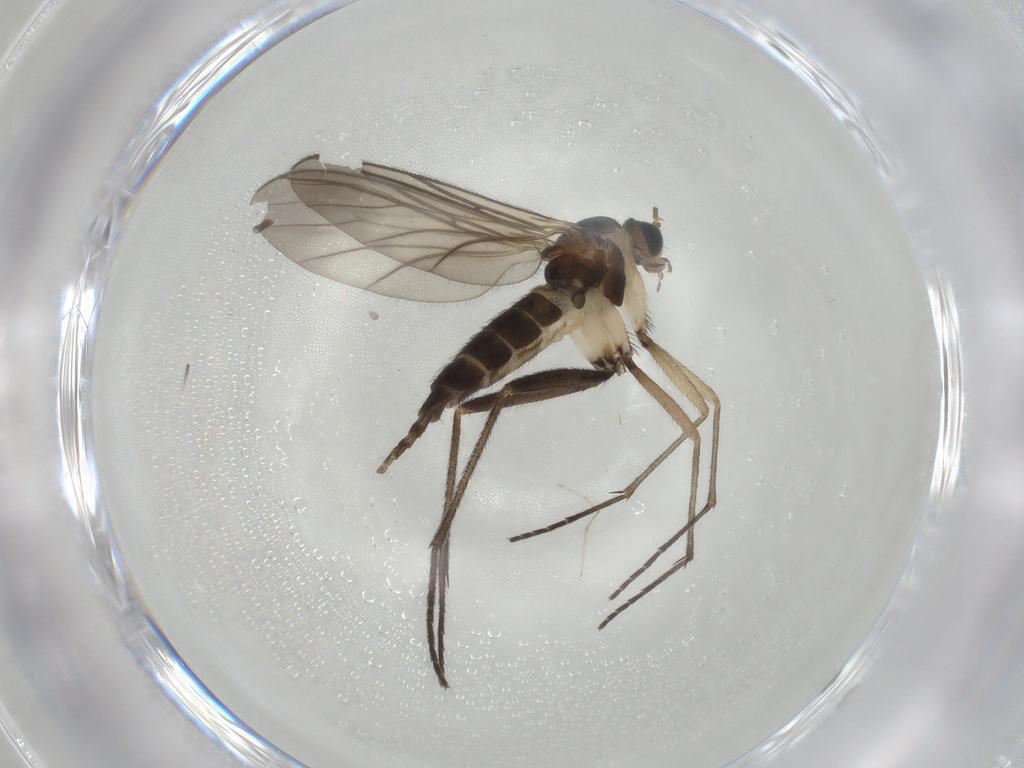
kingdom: Animalia
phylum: Arthropoda
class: Insecta
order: Diptera
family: Sciaridae
